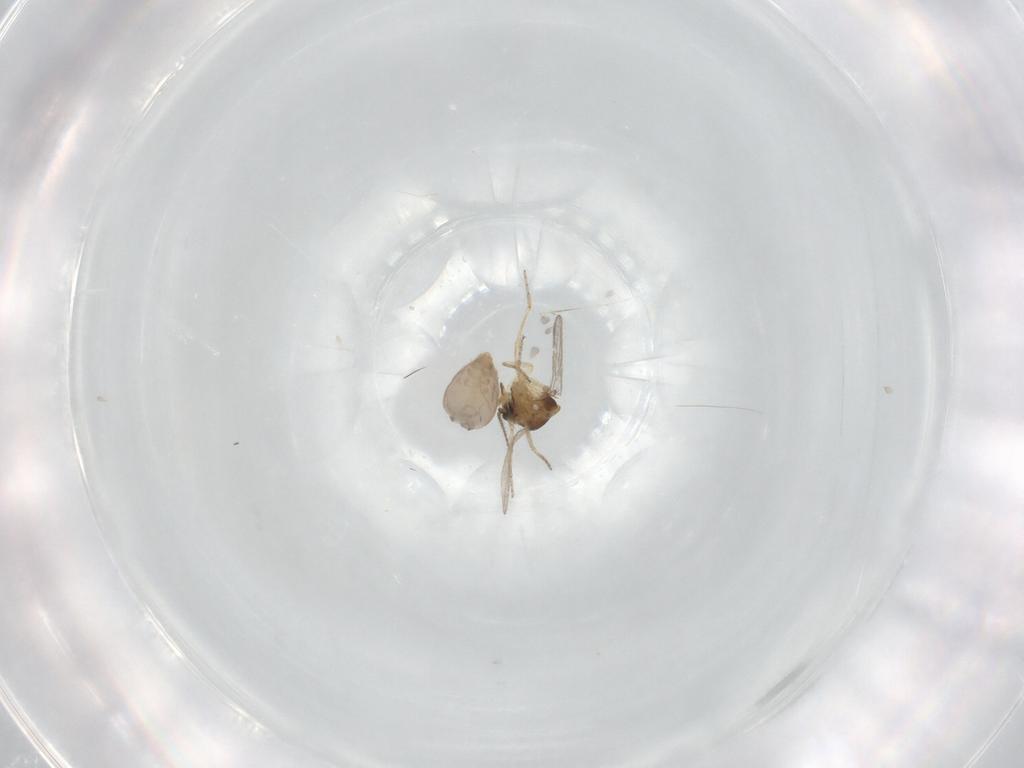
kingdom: Animalia
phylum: Arthropoda
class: Insecta
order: Diptera
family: Ceratopogonidae
